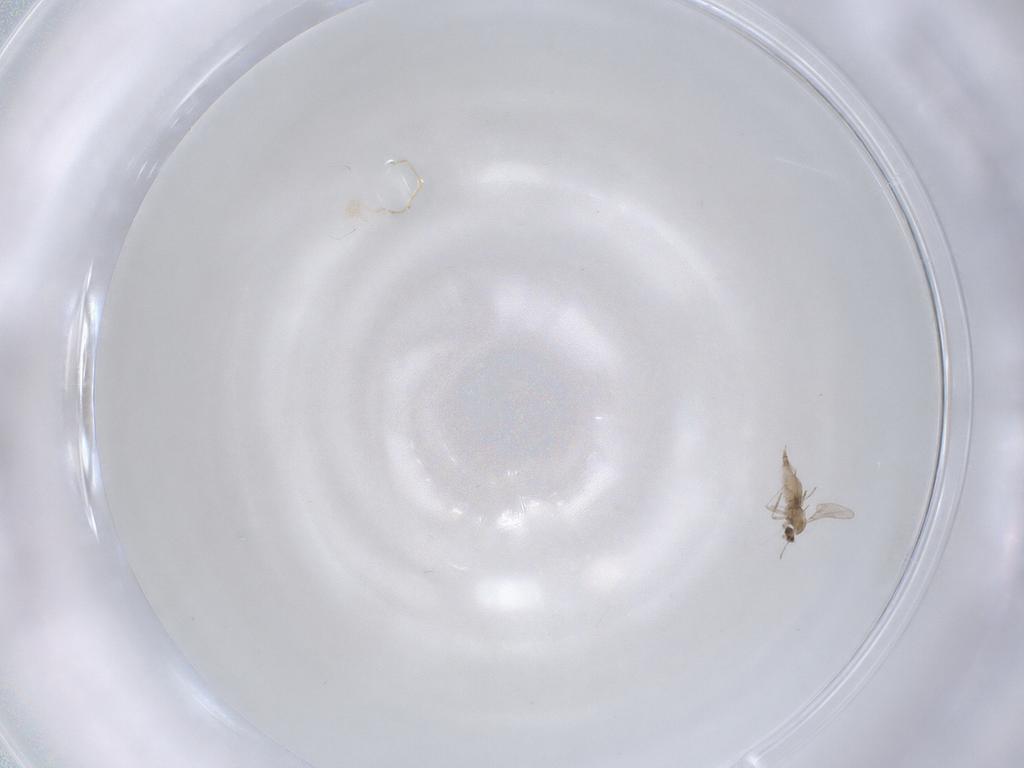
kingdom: Animalia
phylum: Arthropoda
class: Insecta
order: Diptera
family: Cecidomyiidae
